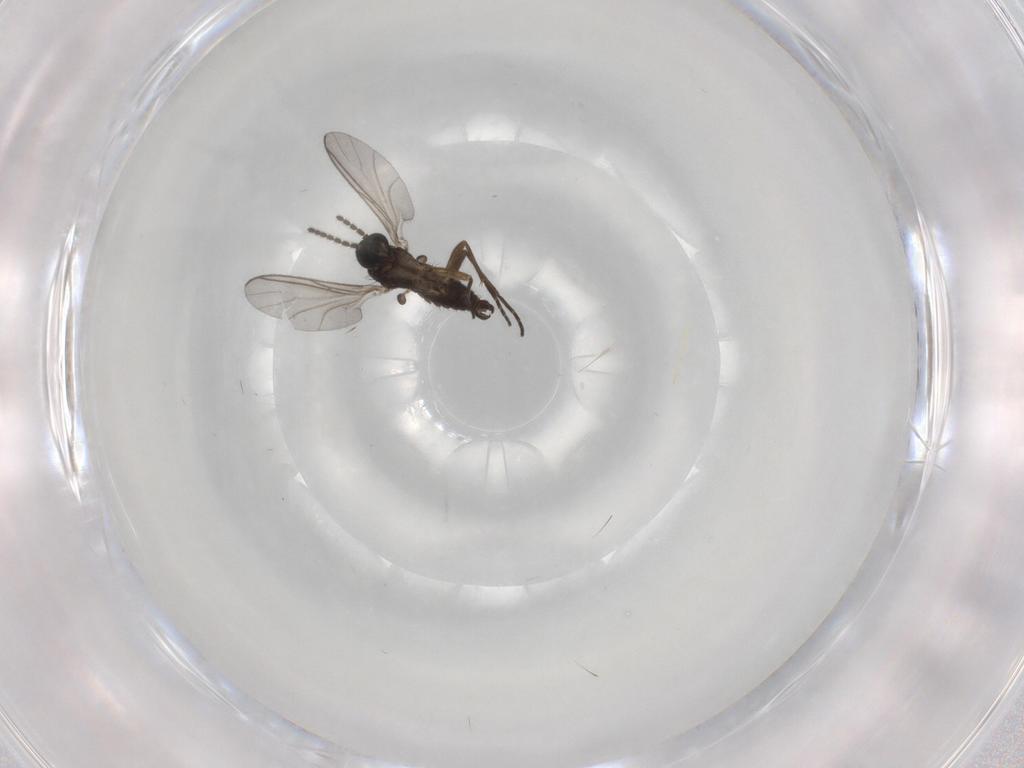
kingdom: Animalia
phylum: Arthropoda
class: Insecta
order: Diptera
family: Sciaridae
